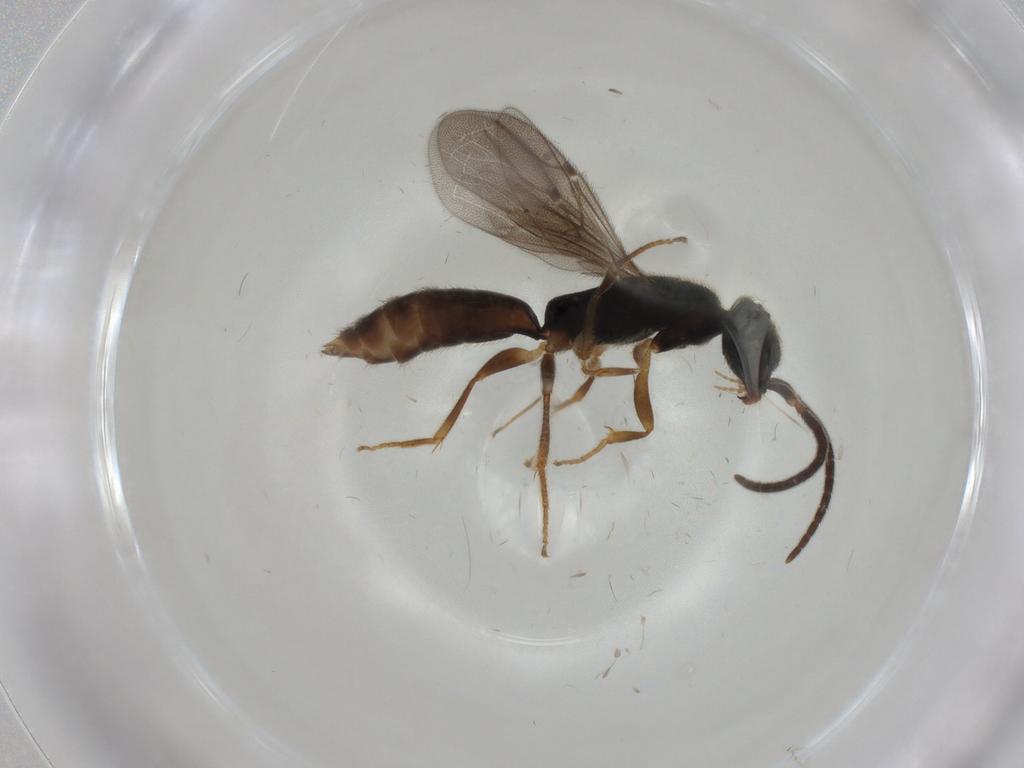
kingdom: Animalia
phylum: Arthropoda
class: Insecta
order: Hymenoptera
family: Bethylidae
